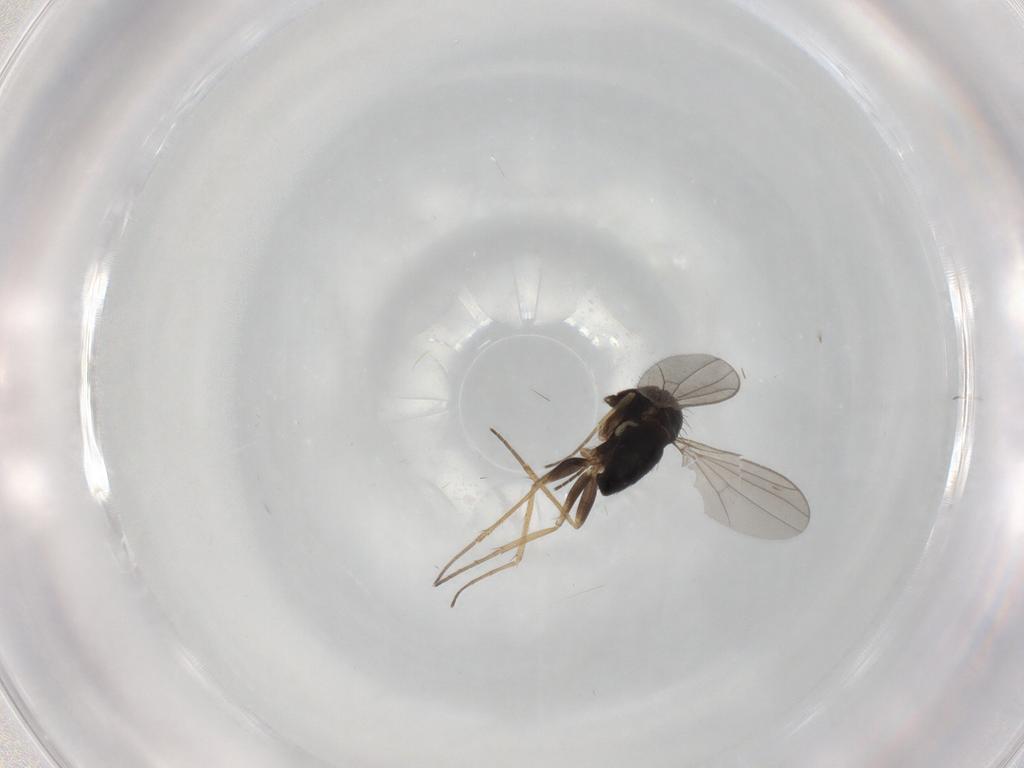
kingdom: Animalia
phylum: Arthropoda
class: Insecta
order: Diptera
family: Dolichopodidae
